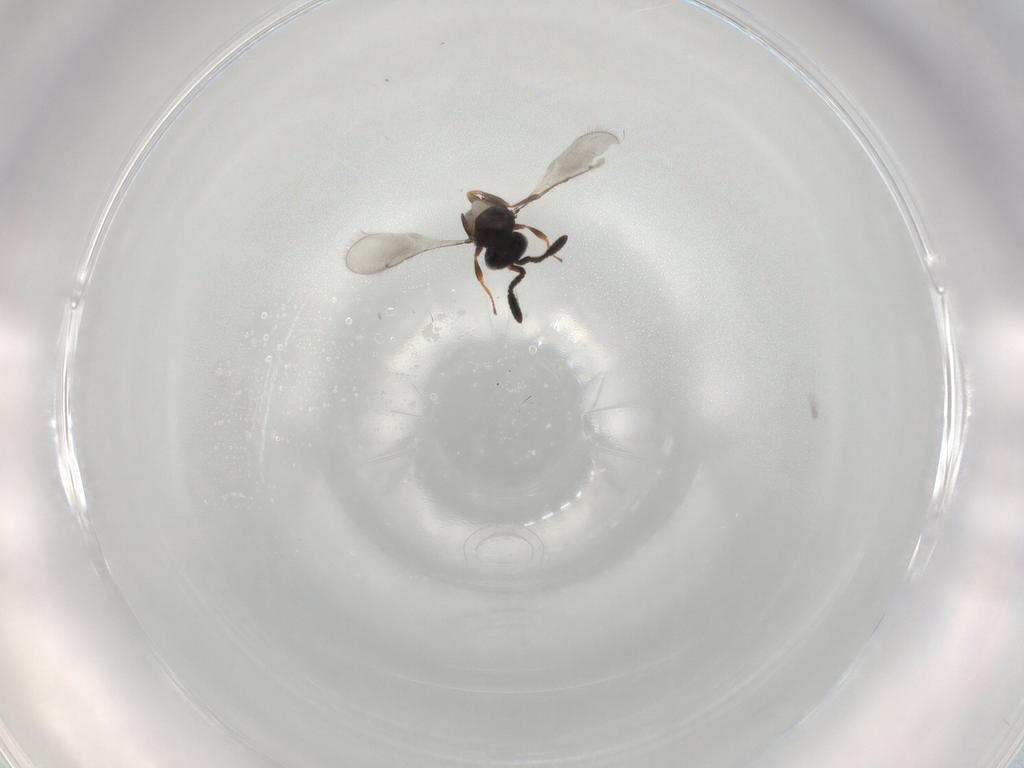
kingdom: Animalia
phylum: Arthropoda
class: Insecta
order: Hymenoptera
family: Scelionidae
